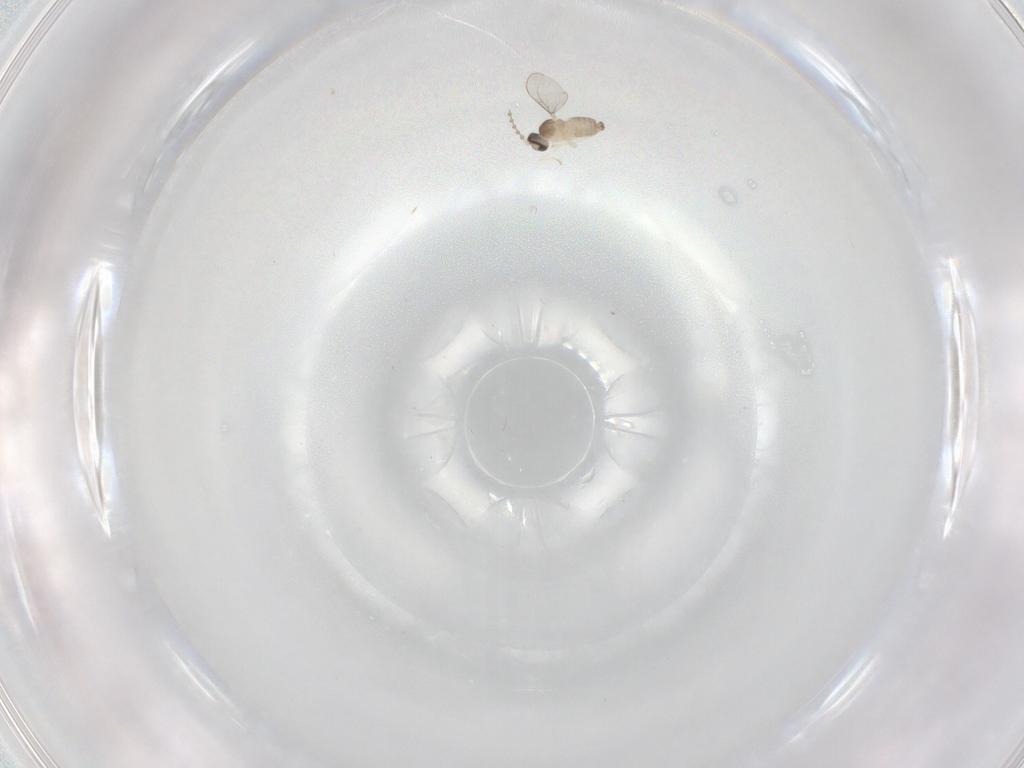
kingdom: Animalia
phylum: Arthropoda
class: Insecta
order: Diptera
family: Cecidomyiidae
